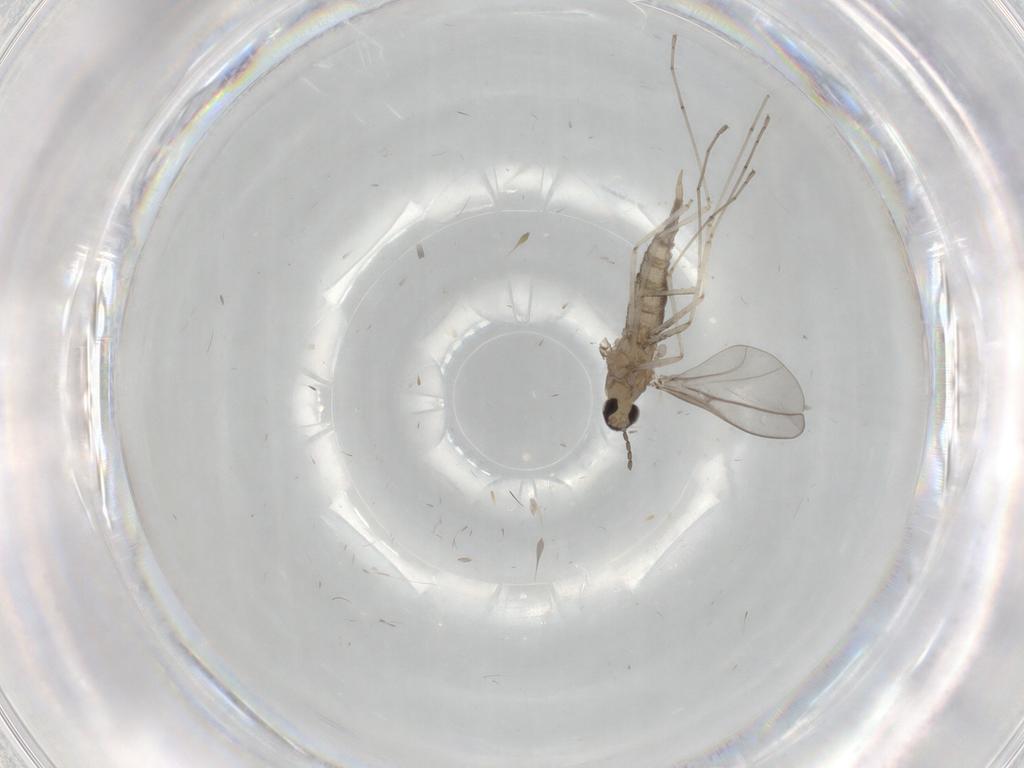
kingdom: Animalia
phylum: Arthropoda
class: Insecta
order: Diptera
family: Cecidomyiidae
